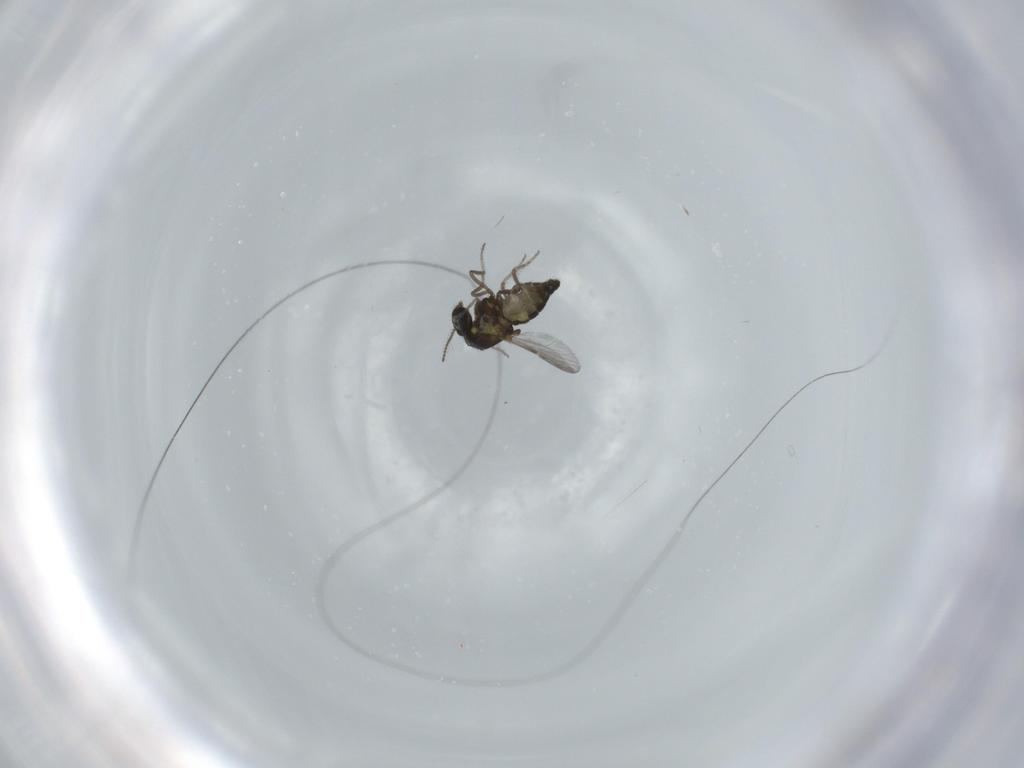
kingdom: Animalia
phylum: Arthropoda
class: Insecta
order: Diptera
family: Ceratopogonidae
